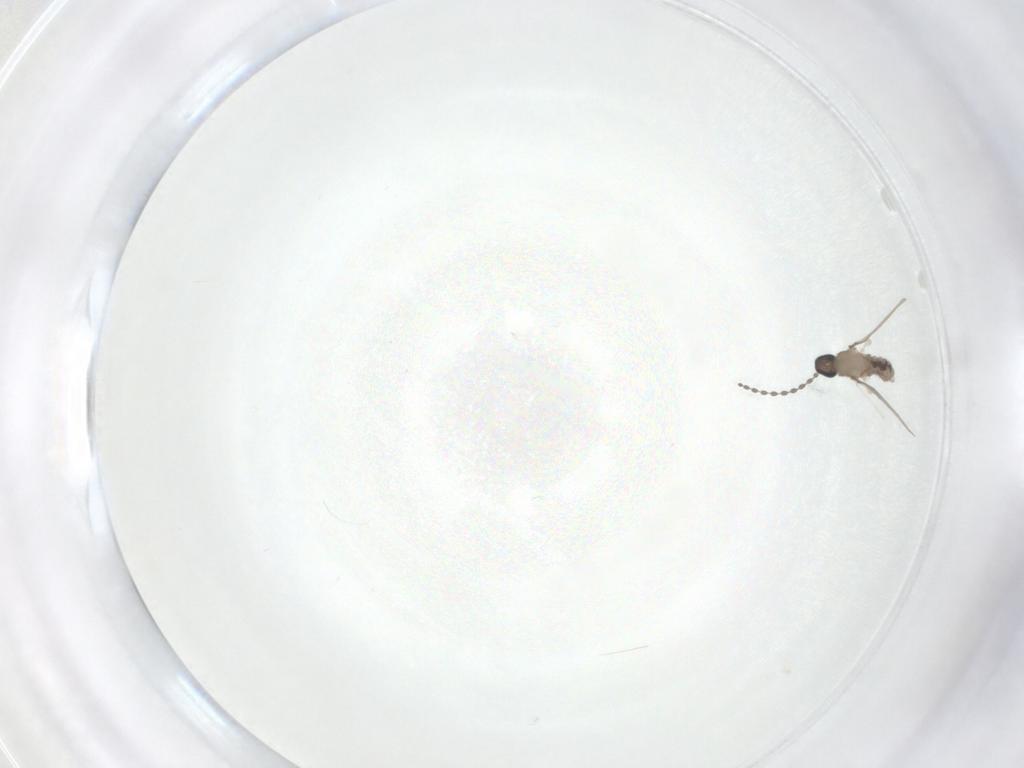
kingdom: Animalia
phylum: Arthropoda
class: Insecta
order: Diptera
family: Cecidomyiidae
